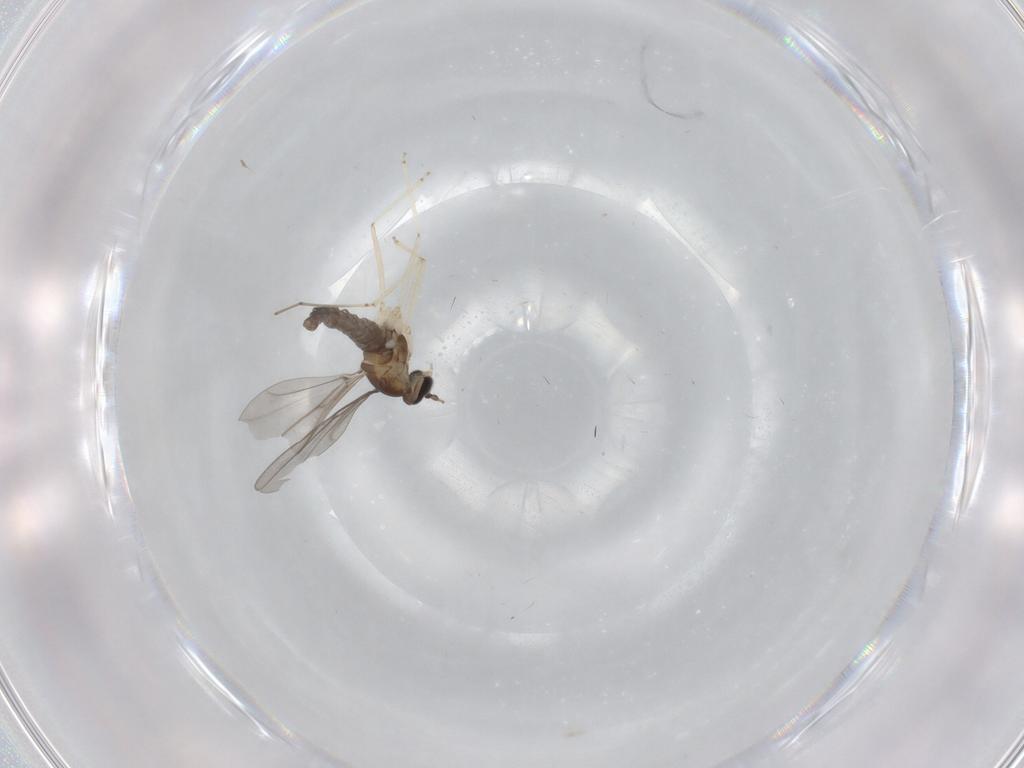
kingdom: Animalia
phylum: Arthropoda
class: Insecta
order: Diptera
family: Cecidomyiidae
